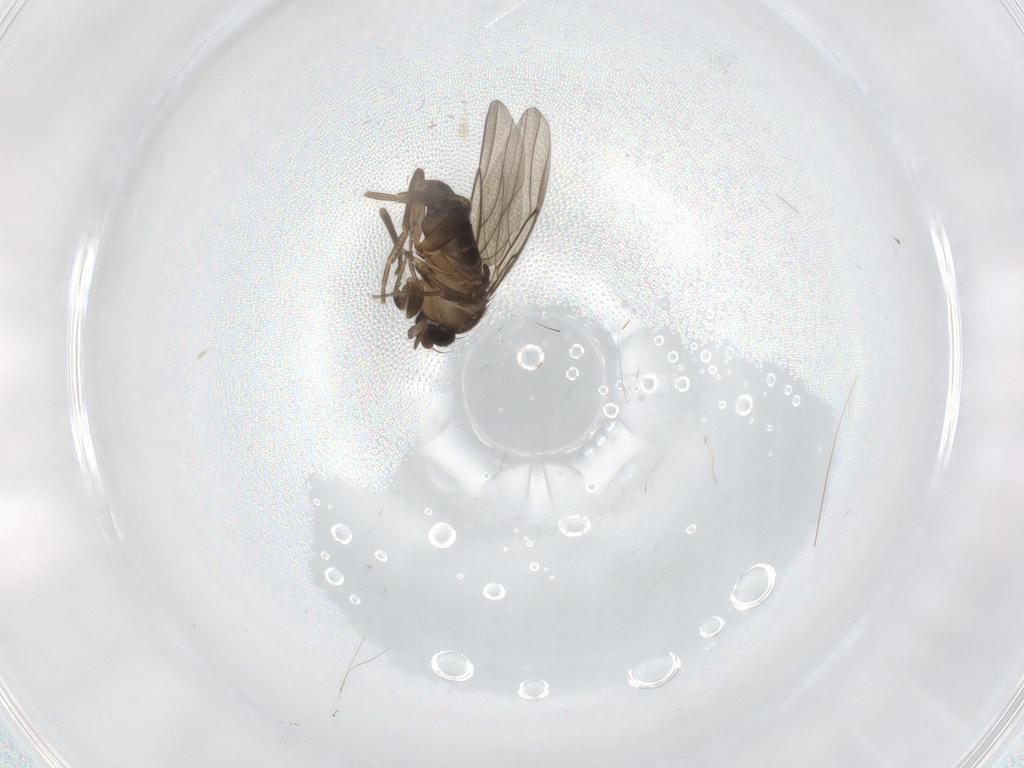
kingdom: Animalia
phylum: Arthropoda
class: Insecta
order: Diptera
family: Phoridae
